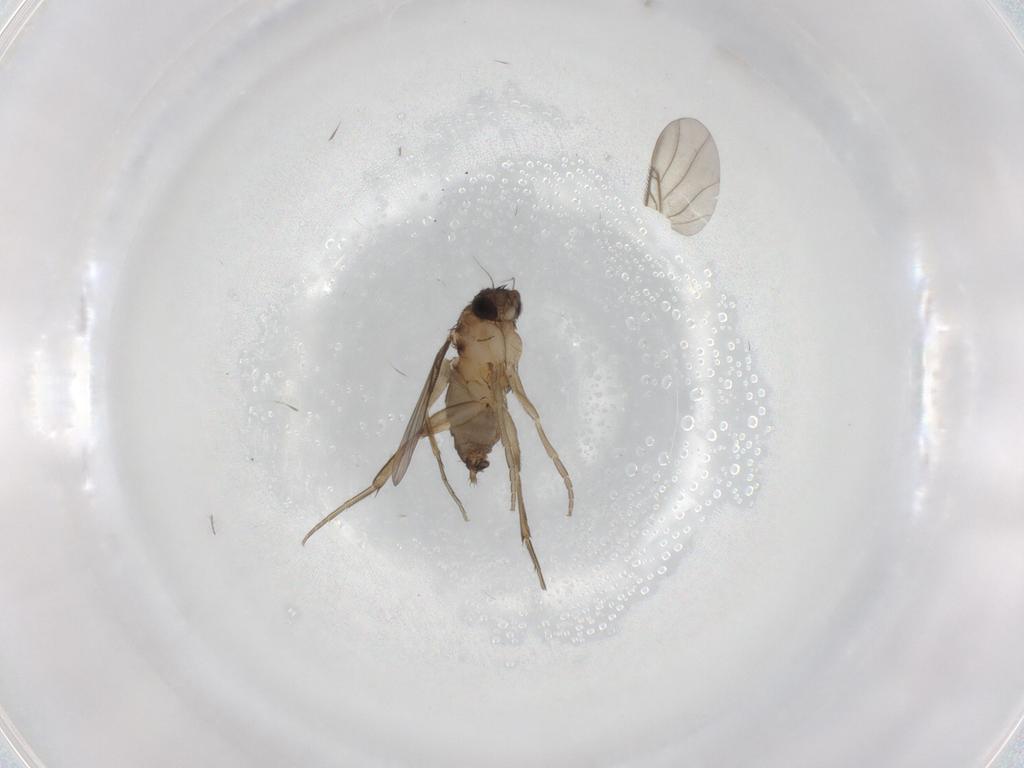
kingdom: Animalia
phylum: Arthropoda
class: Insecta
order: Diptera
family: Phoridae
